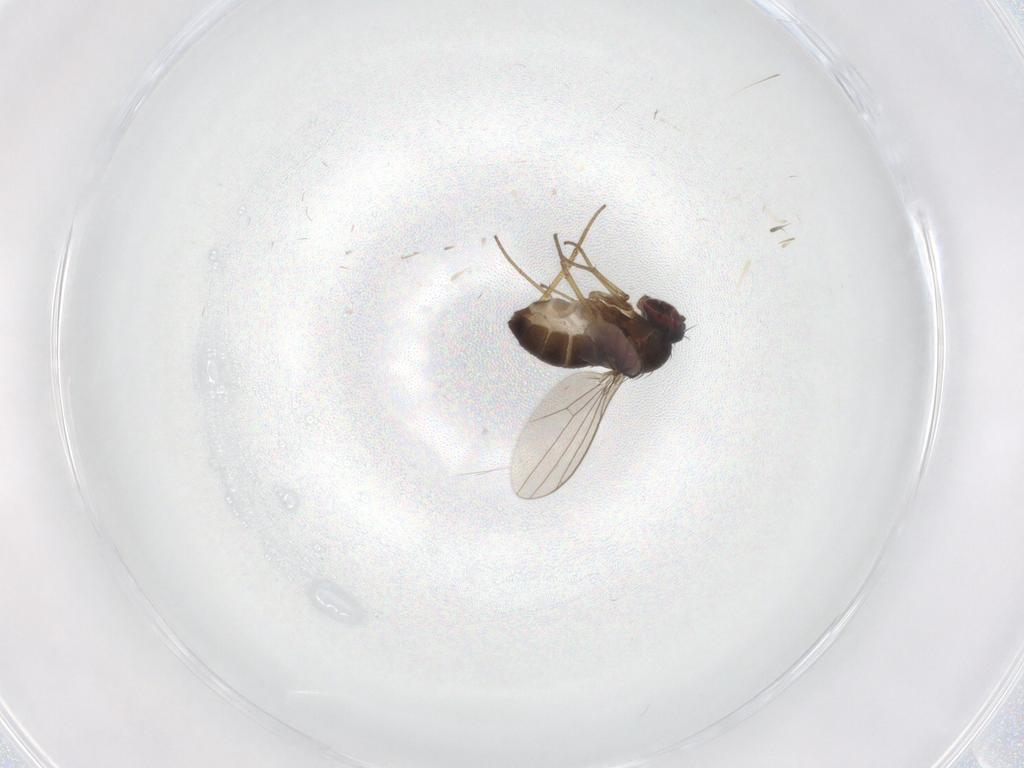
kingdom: Animalia
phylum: Arthropoda
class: Insecta
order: Diptera
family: Dolichopodidae
